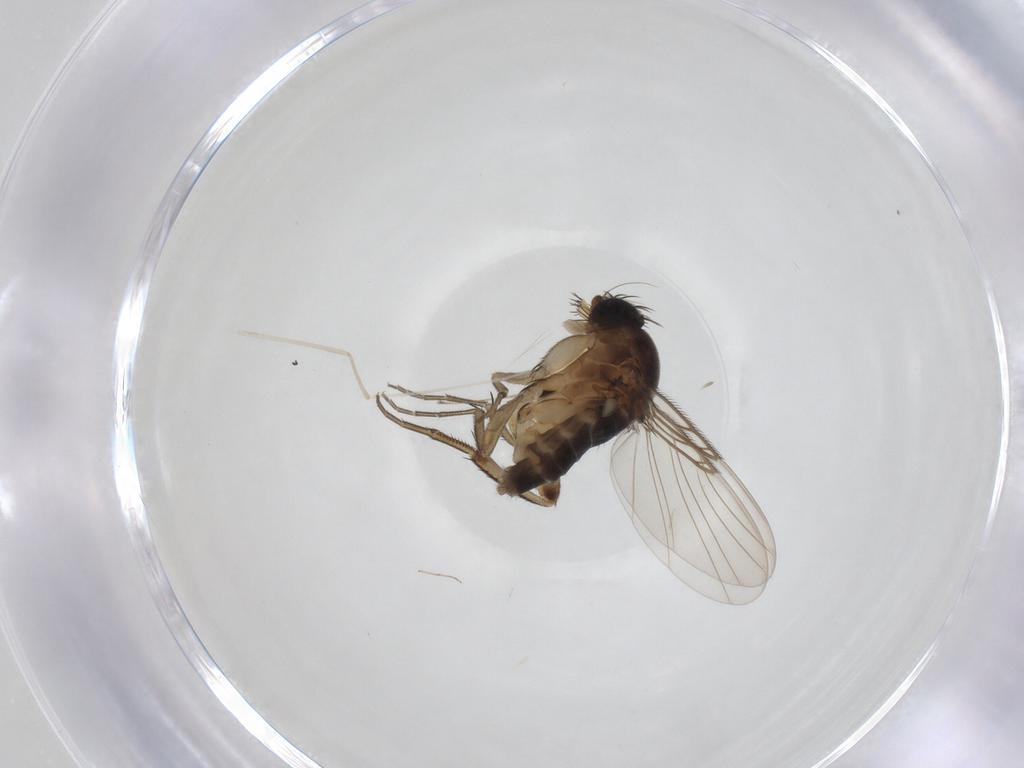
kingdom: Animalia
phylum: Arthropoda
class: Insecta
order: Diptera
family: Phoridae
